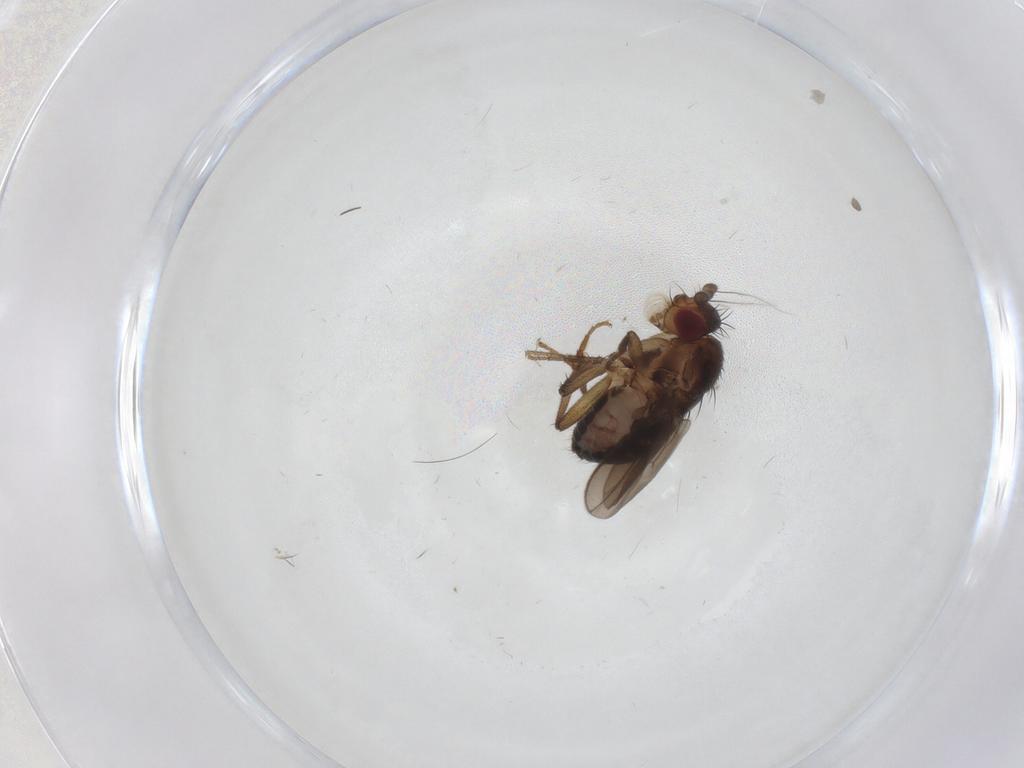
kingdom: Animalia
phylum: Arthropoda
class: Insecta
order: Diptera
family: Sphaeroceridae
